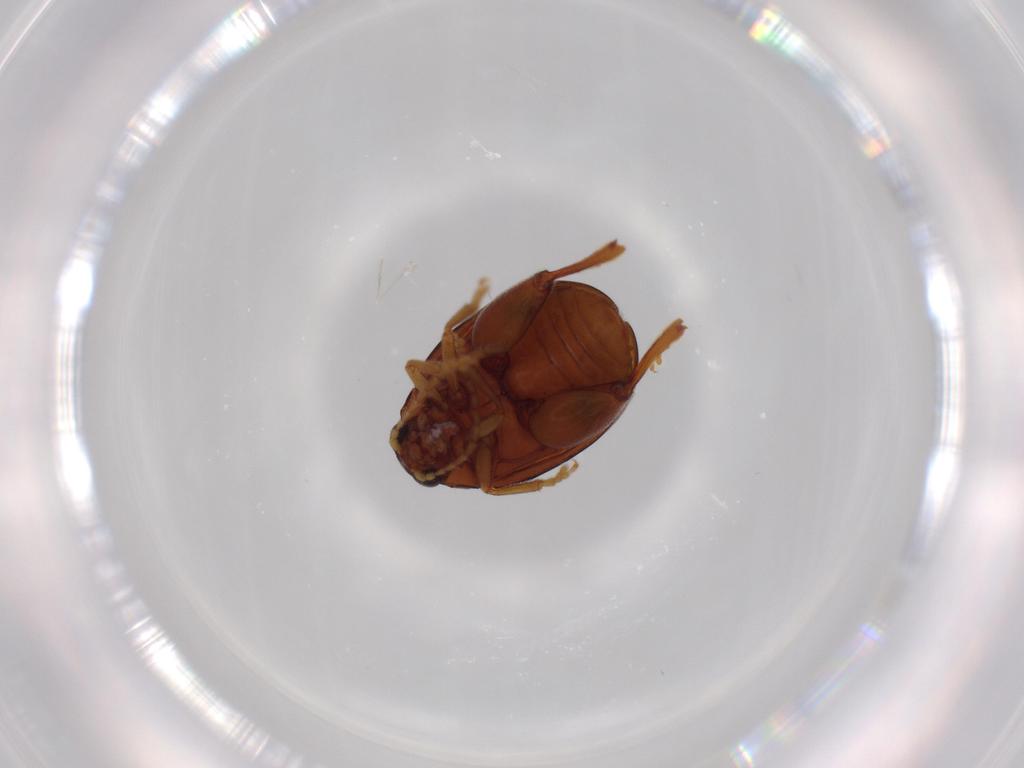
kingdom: Animalia
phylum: Arthropoda
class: Insecta
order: Coleoptera
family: Chrysomelidae
